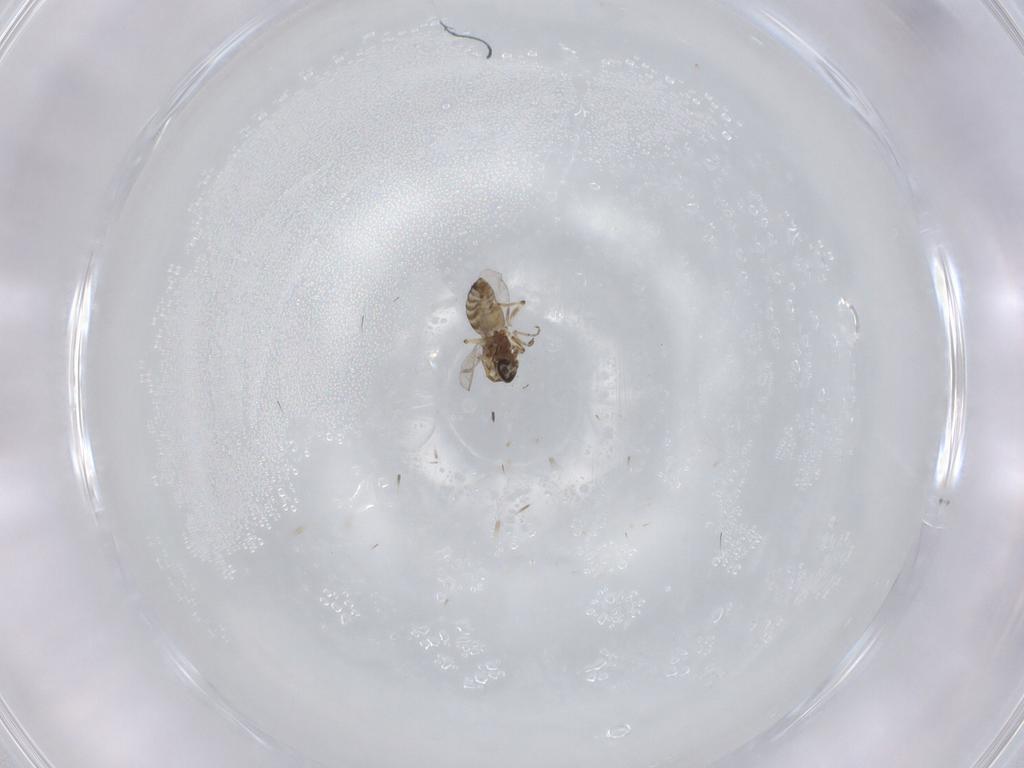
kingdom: Animalia
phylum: Arthropoda
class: Insecta
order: Diptera
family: Ceratopogonidae
